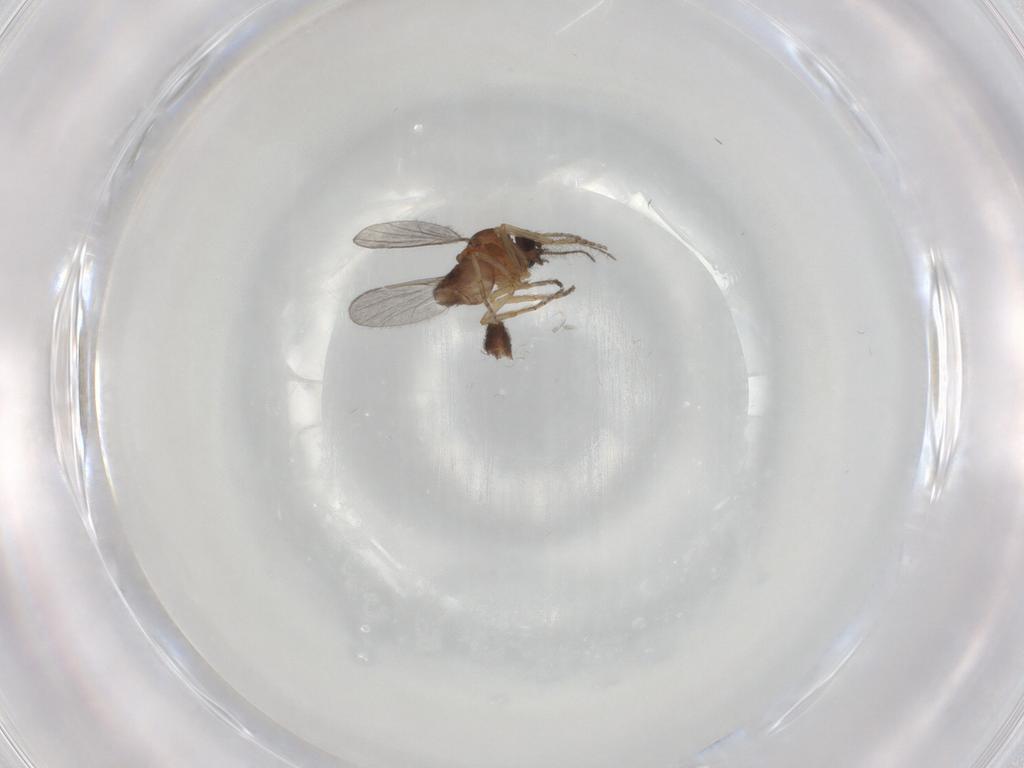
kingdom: Animalia
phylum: Arthropoda
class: Insecta
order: Diptera
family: Ceratopogonidae
